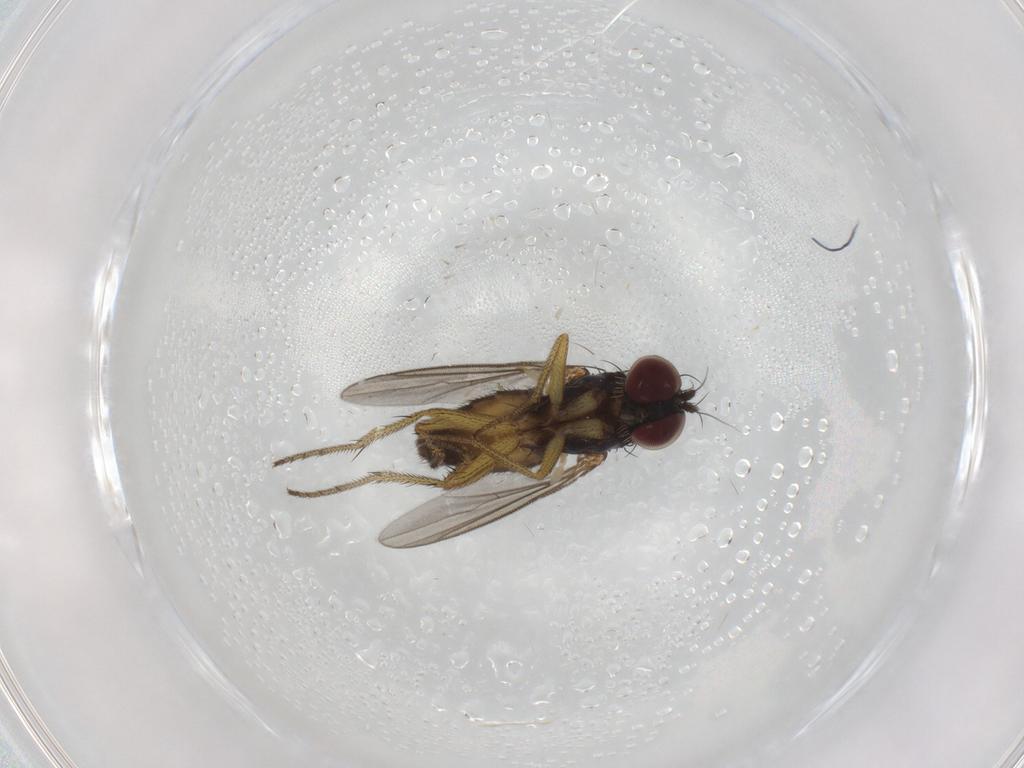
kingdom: Animalia
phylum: Arthropoda
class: Insecta
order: Diptera
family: Dolichopodidae
